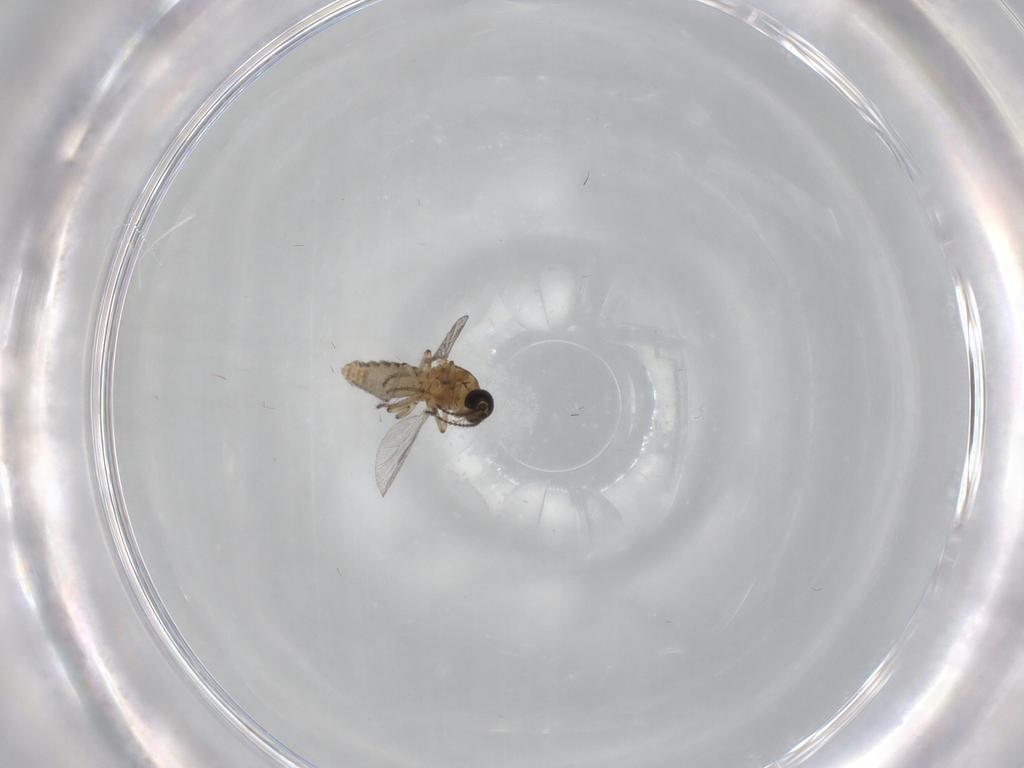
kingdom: Animalia
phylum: Arthropoda
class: Insecta
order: Diptera
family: Ceratopogonidae
